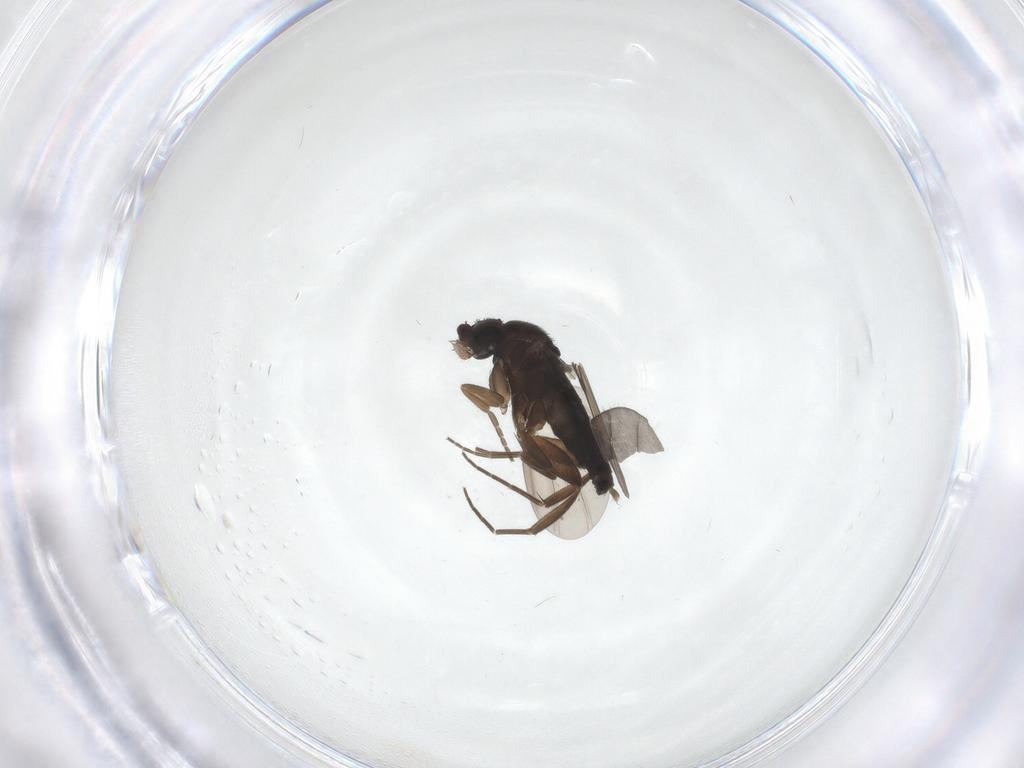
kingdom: Animalia
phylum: Arthropoda
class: Insecta
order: Diptera
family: Phoridae
